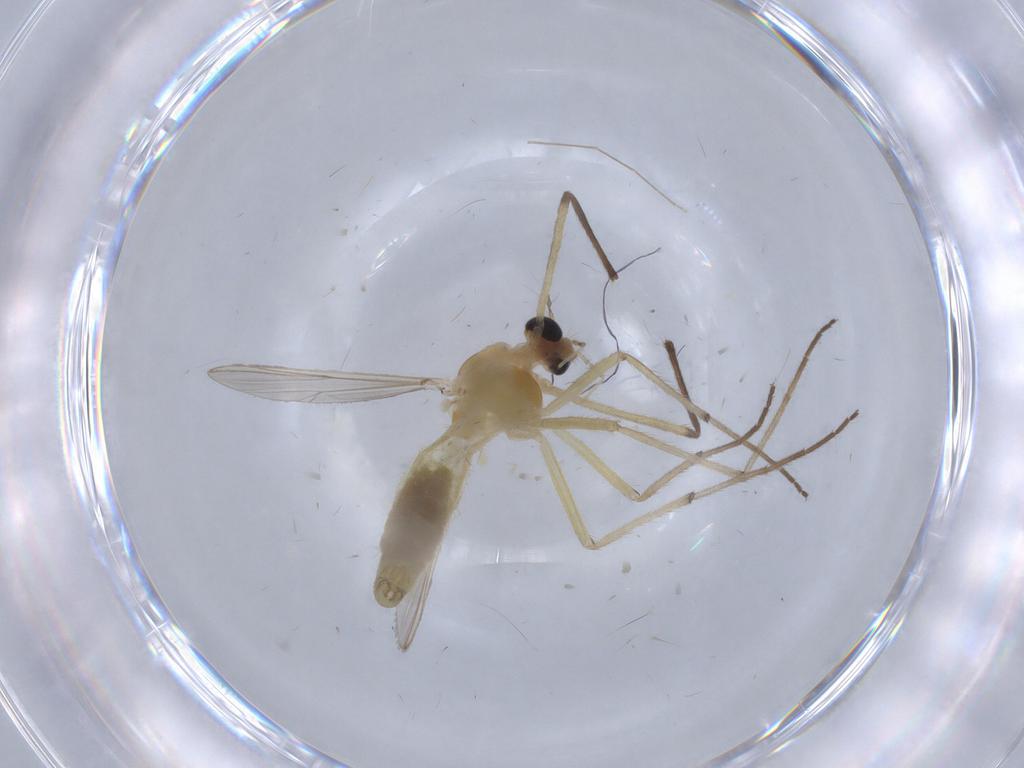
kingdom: Animalia
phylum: Arthropoda
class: Insecta
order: Diptera
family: Chironomidae
